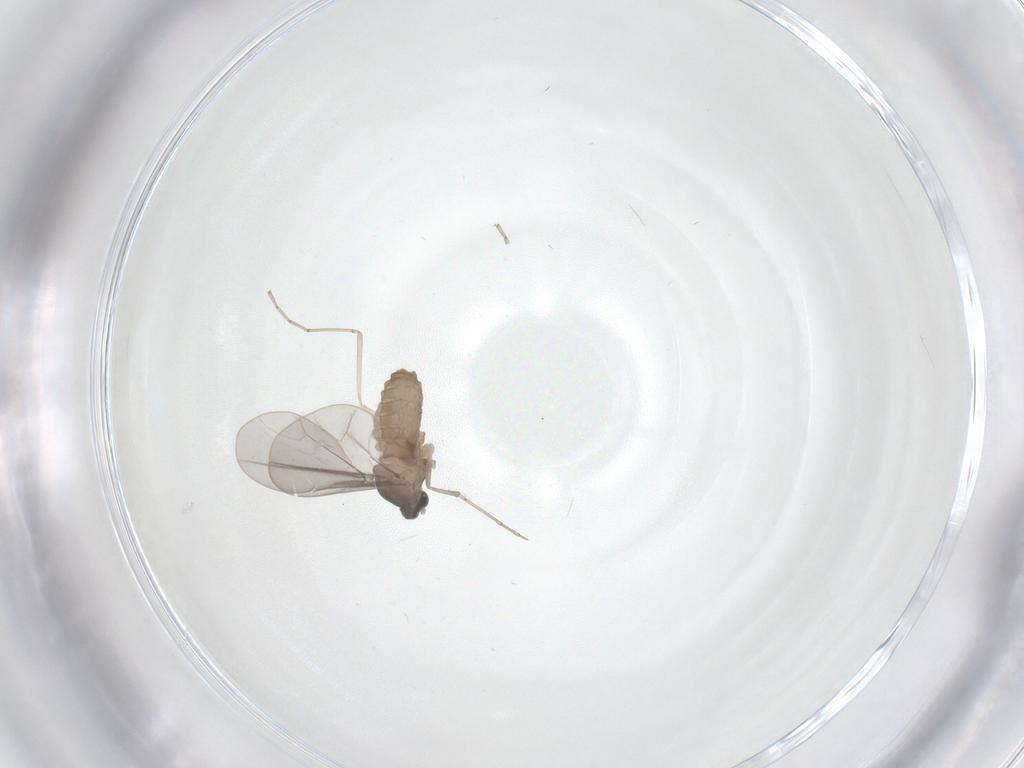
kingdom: Animalia
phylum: Arthropoda
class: Insecta
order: Diptera
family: Cecidomyiidae
